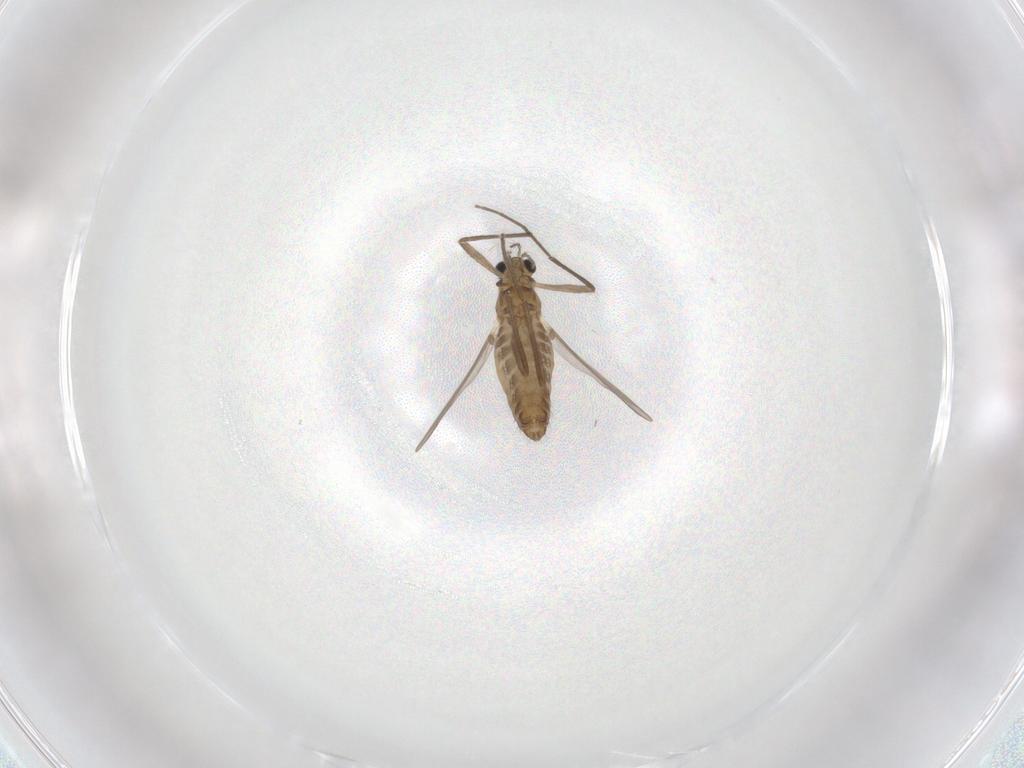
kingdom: Animalia
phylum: Arthropoda
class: Insecta
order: Diptera
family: Chironomidae
